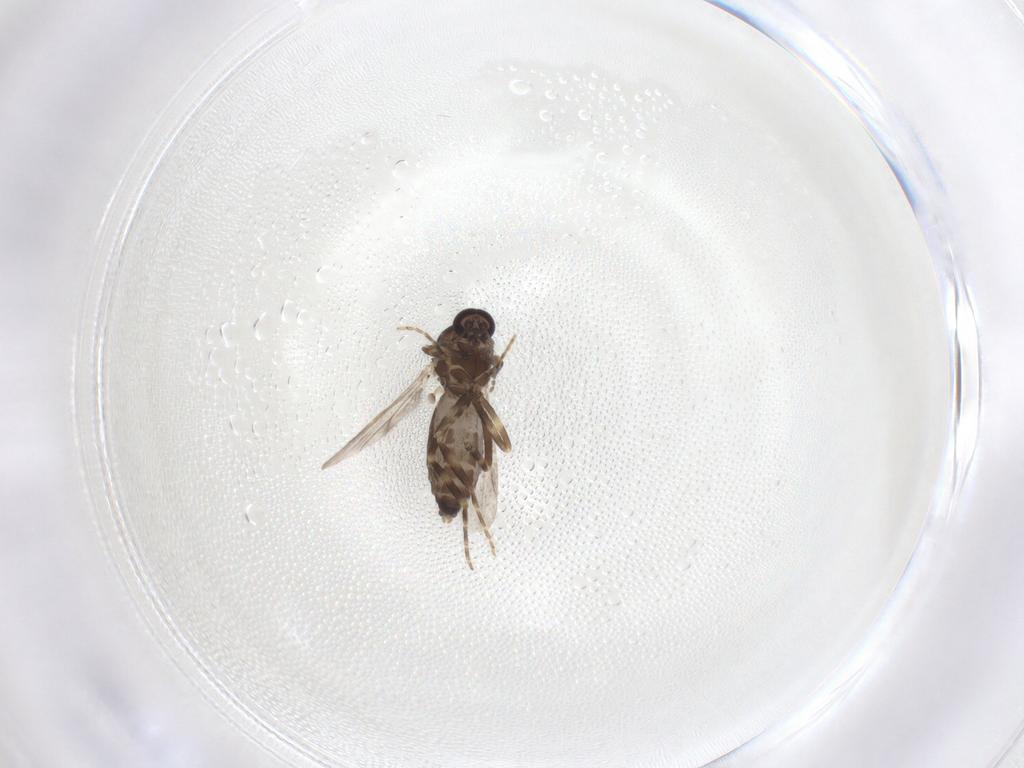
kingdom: Animalia
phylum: Arthropoda
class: Insecta
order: Diptera
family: Ceratopogonidae
